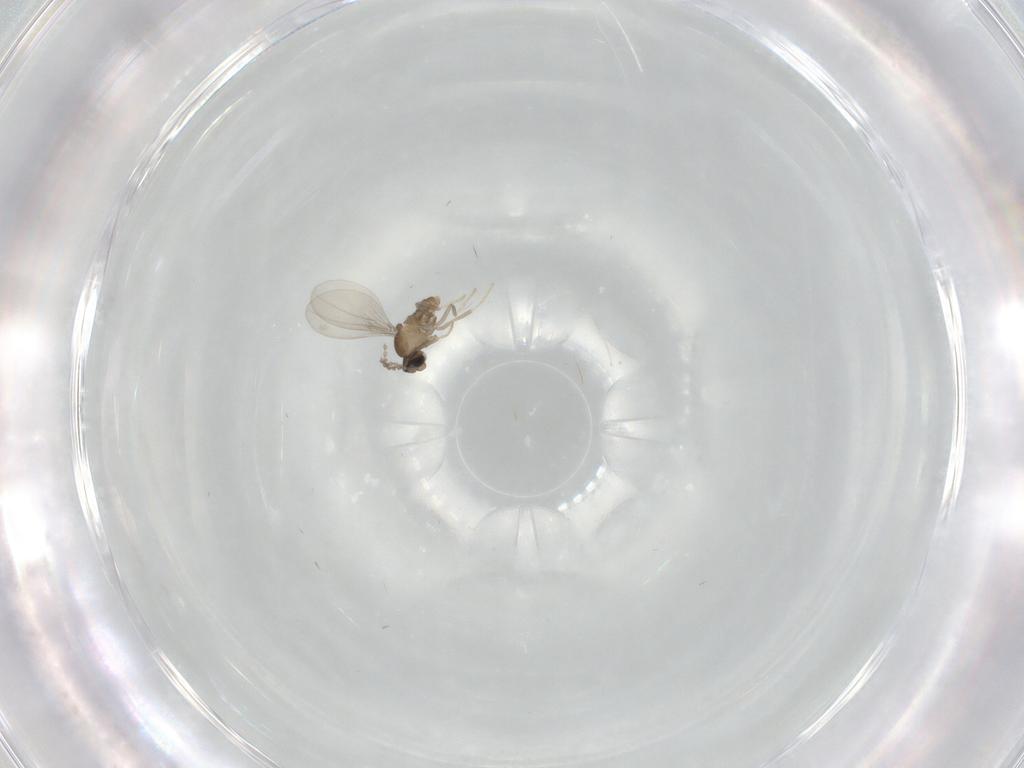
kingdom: Animalia
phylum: Arthropoda
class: Insecta
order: Diptera
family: Cecidomyiidae
